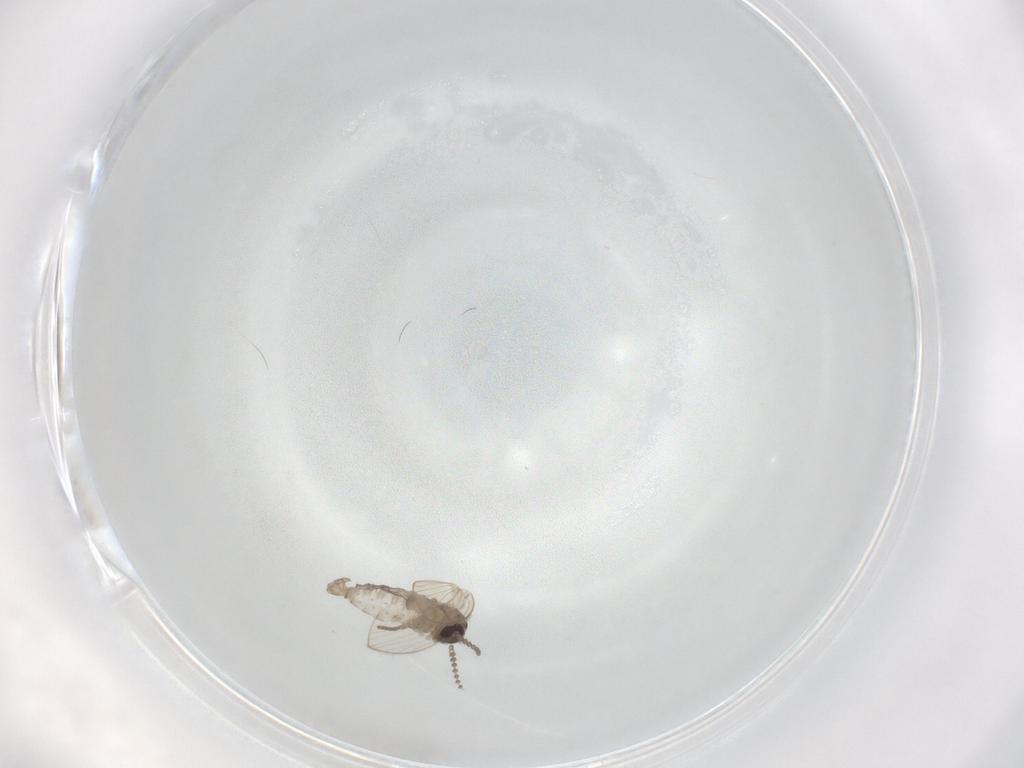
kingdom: Animalia
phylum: Arthropoda
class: Insecta
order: Diptera
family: Psychodidae
